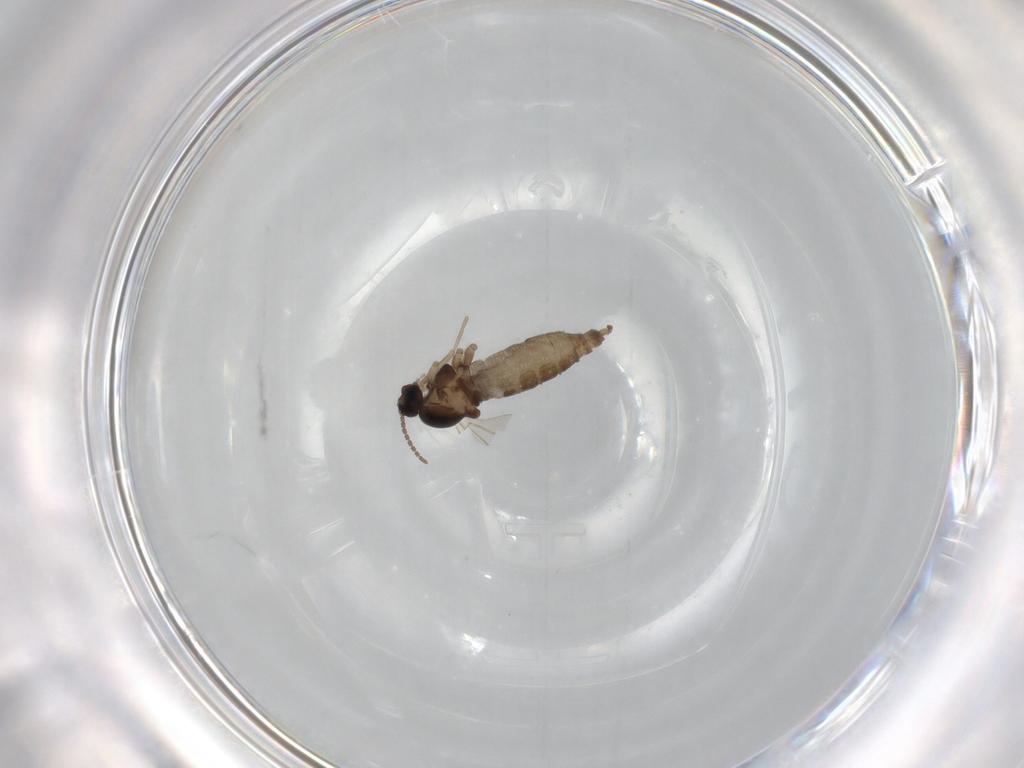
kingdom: Animalia
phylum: Arthropoda
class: Insecta
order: Diptera
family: Cecidomyiidae
